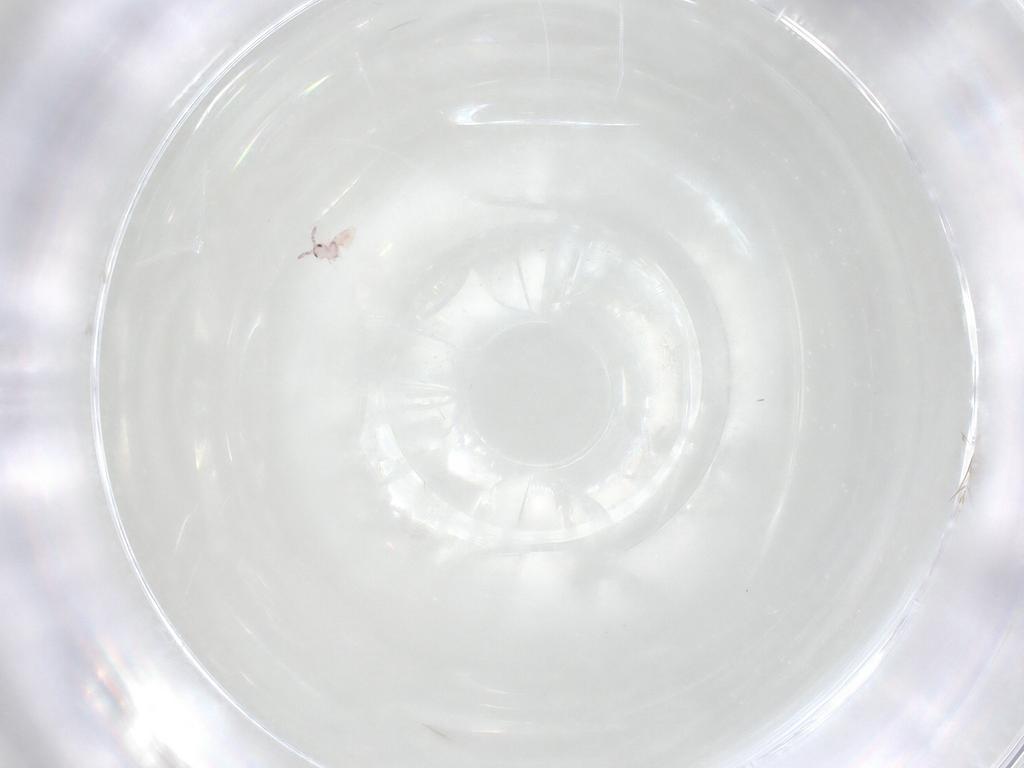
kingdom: Animalia
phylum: Arthropoda
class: Collembola
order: Entomobryomorpha
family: Entomobryidae
